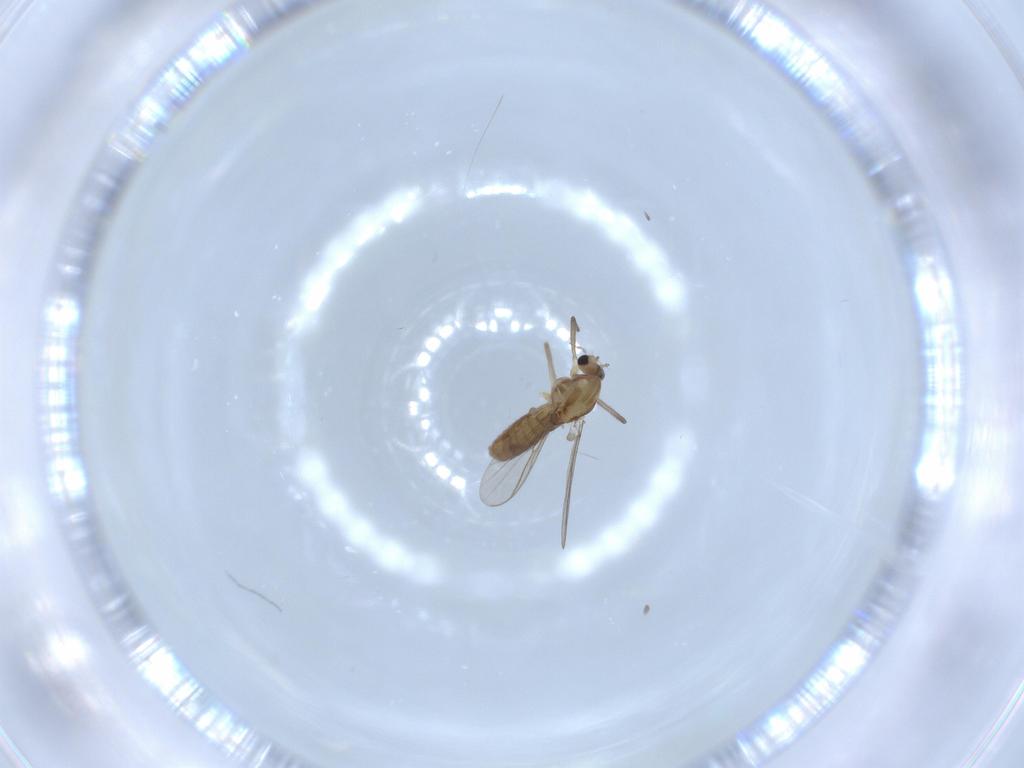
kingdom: Animalia
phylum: Arthropoda
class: Insecta
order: Diptera
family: Chironomidae
